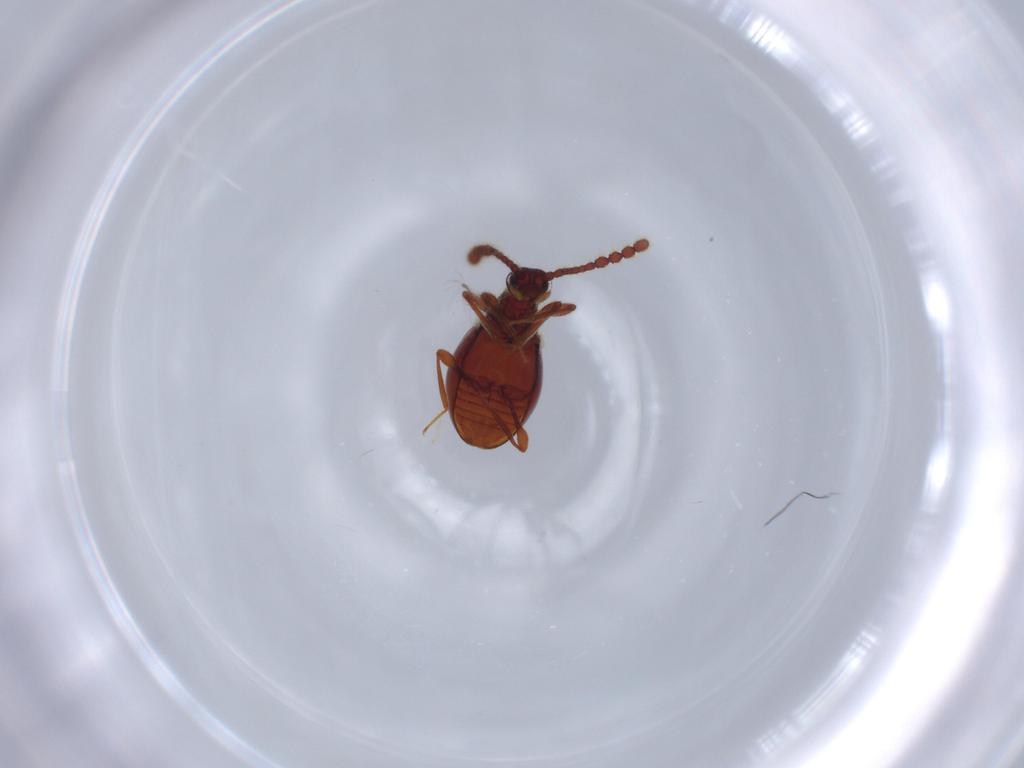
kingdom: Animalia
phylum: Arthropoda
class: Insecta
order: Coleoptera
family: Staphylinidae
